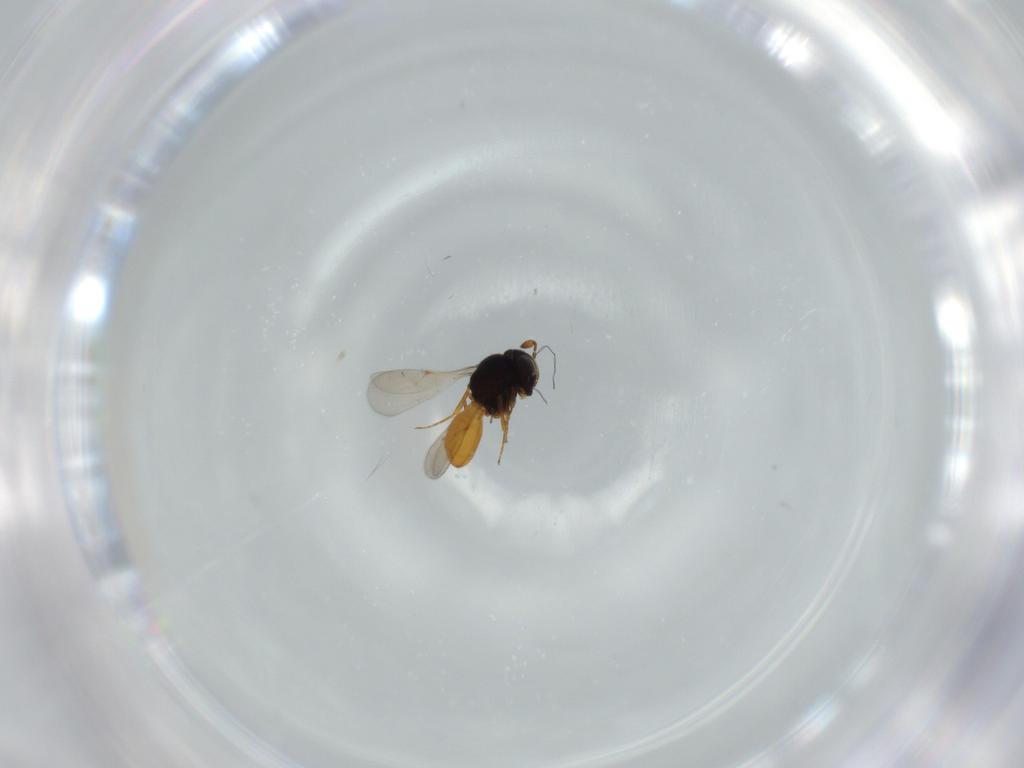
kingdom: Animalia
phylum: Arthropoda
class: Insecta
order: Hymenoptera
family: Scelionidae
